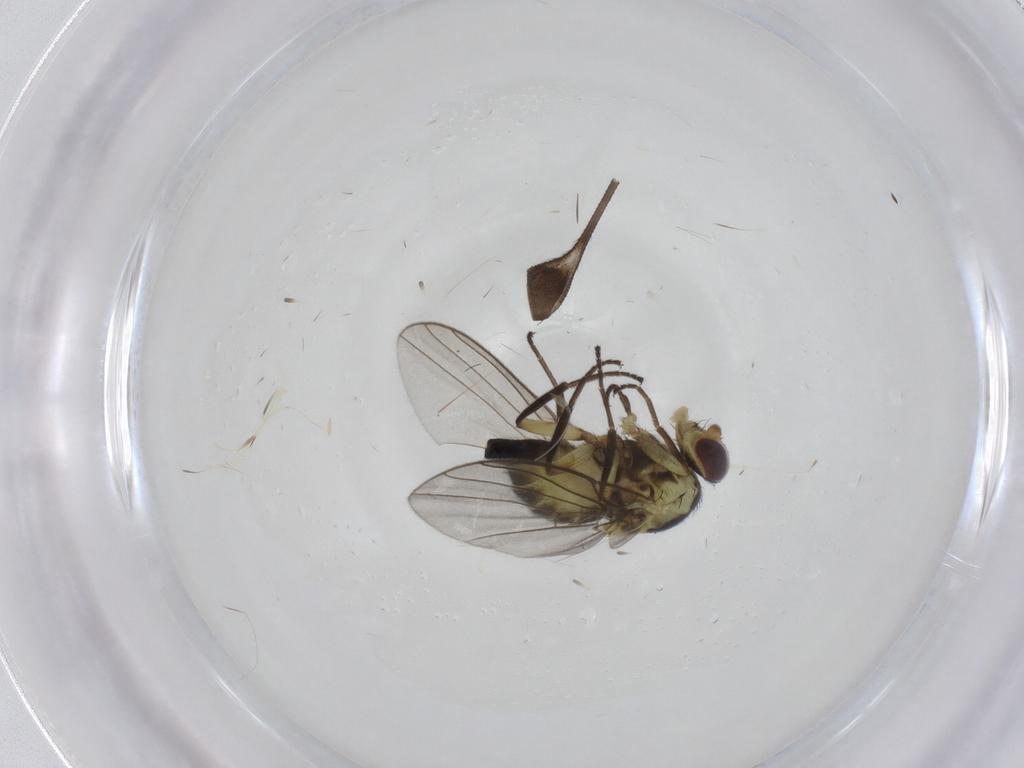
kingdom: Animalia
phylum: Arthropoda
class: Insecta
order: Diptera
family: Agromyzidae
